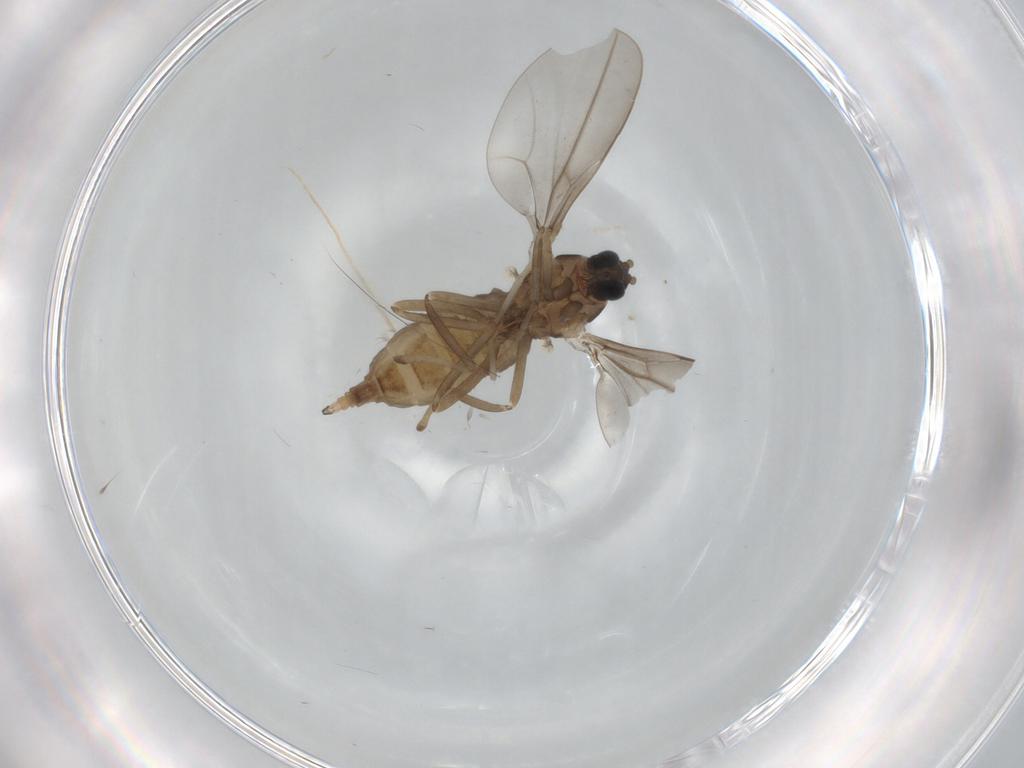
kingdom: Animalia
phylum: Arthropoda
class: Insecta
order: Diptera
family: Cecidomyiidae
